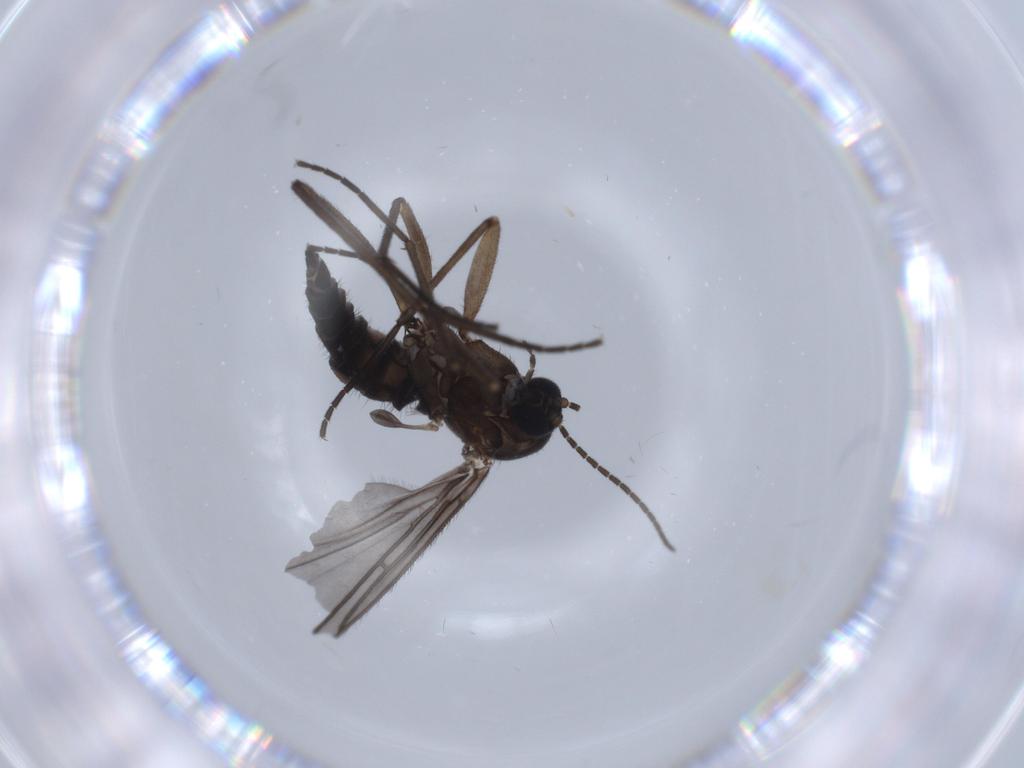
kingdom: Animalia
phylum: Arthropoda
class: Insecta
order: Diptera
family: Sciaridae
